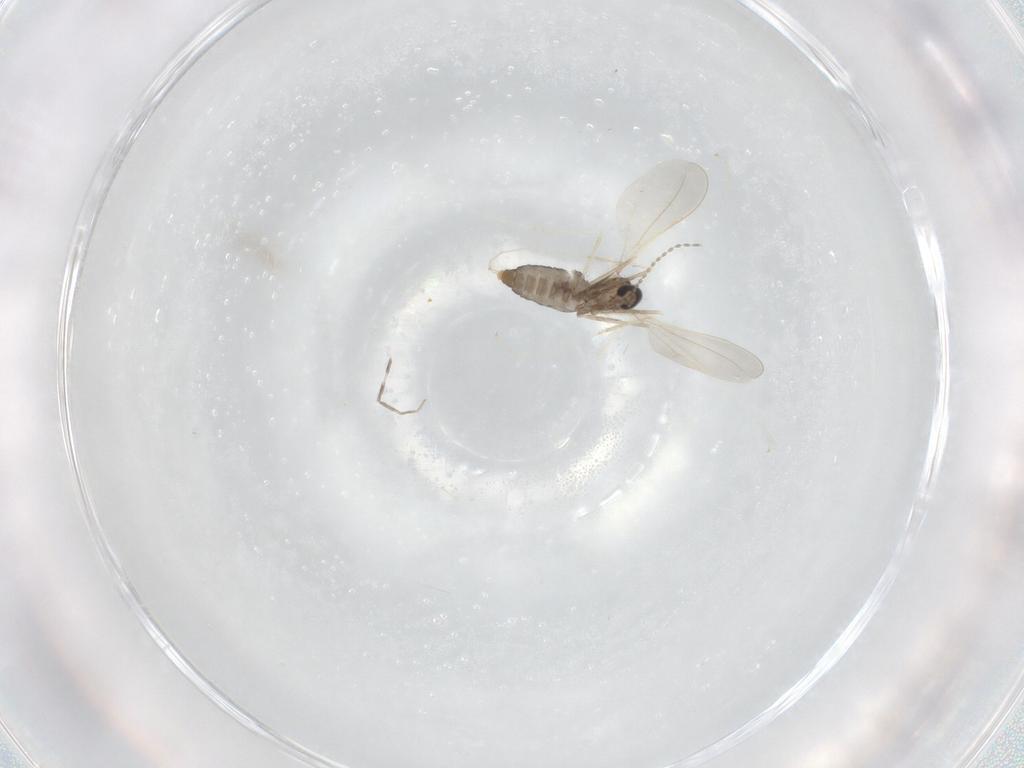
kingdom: Animalia
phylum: Arthropoda
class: Insecta
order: Diptera
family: Cecidomyiidae
